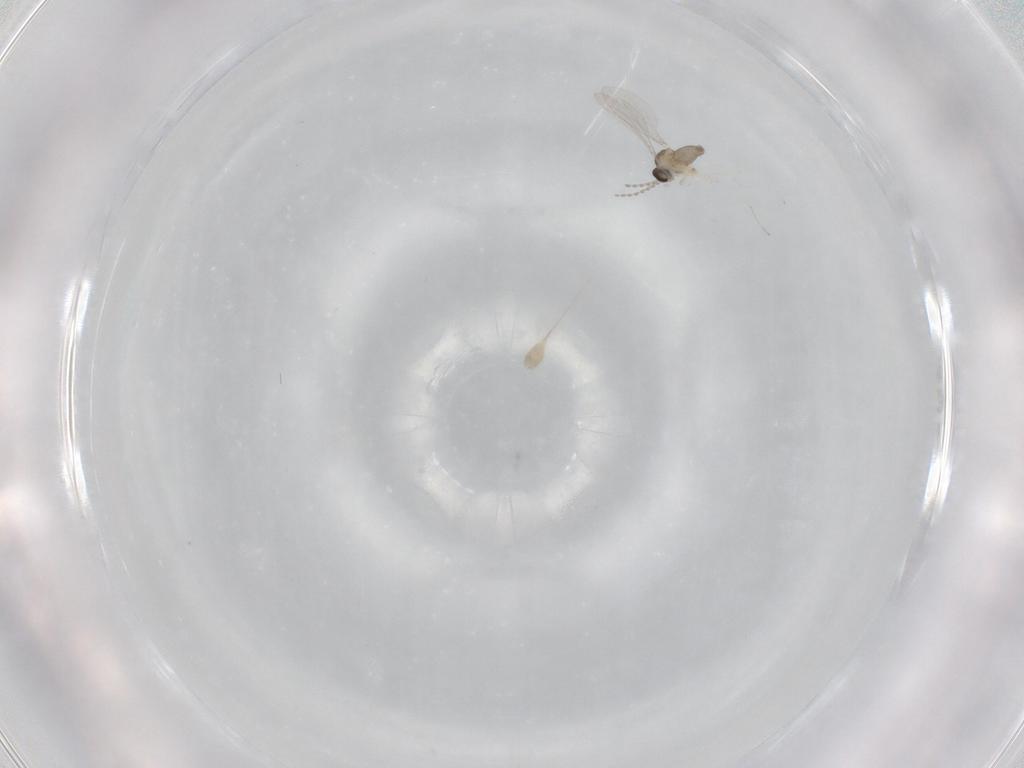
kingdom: Animalia
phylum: Arthropoda
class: Insecta
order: Diptera
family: Cecidomyiidae
